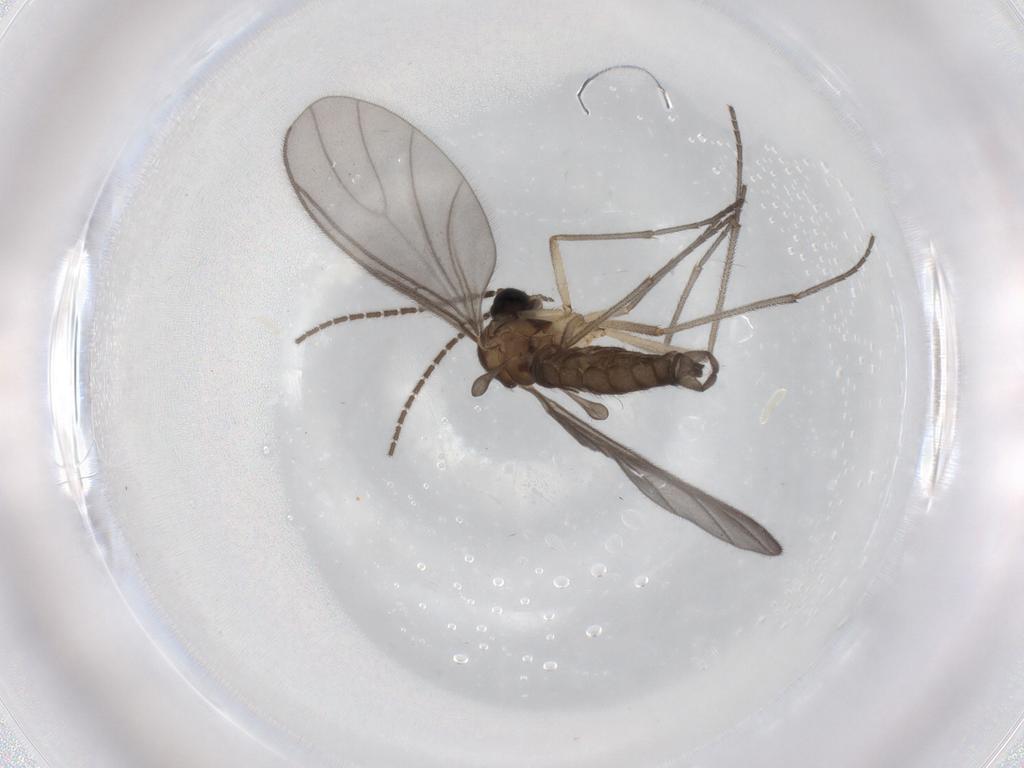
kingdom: Animalia
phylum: Arthropoda
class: Insecta
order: Diptera
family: Sciaridae
